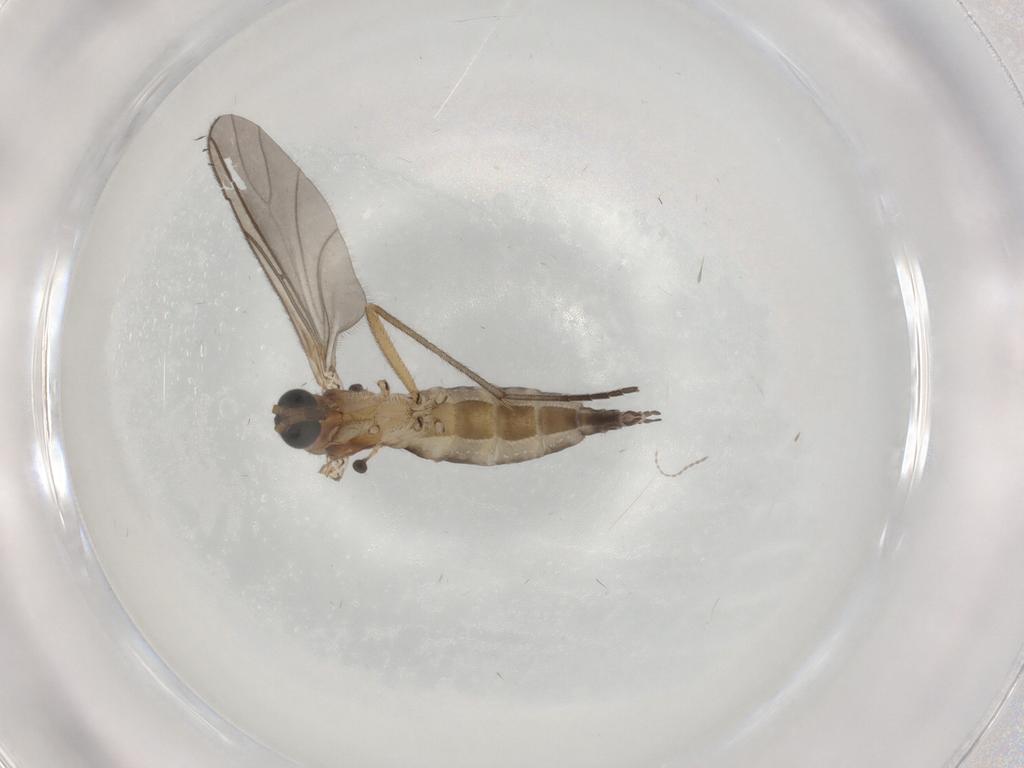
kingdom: Animalia
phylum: Arthropoda
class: Insecta
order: Diptera
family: Sciaridae
